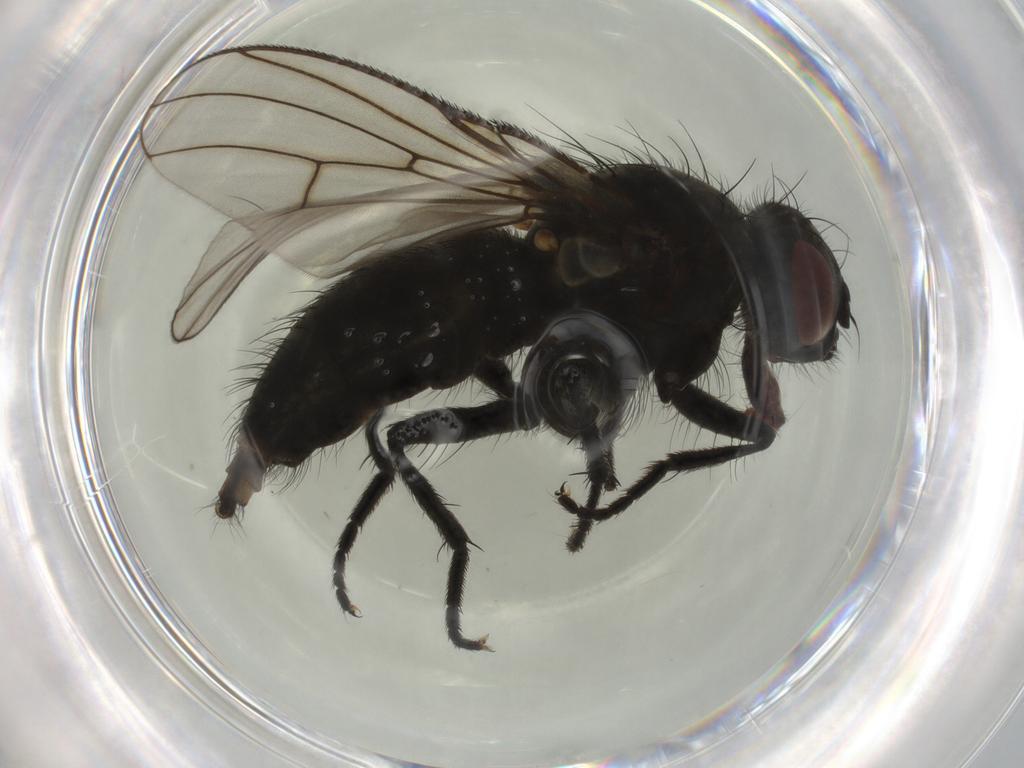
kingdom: Animalia
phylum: Arthropoda
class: Insecta
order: Diptera
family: Muscidae
